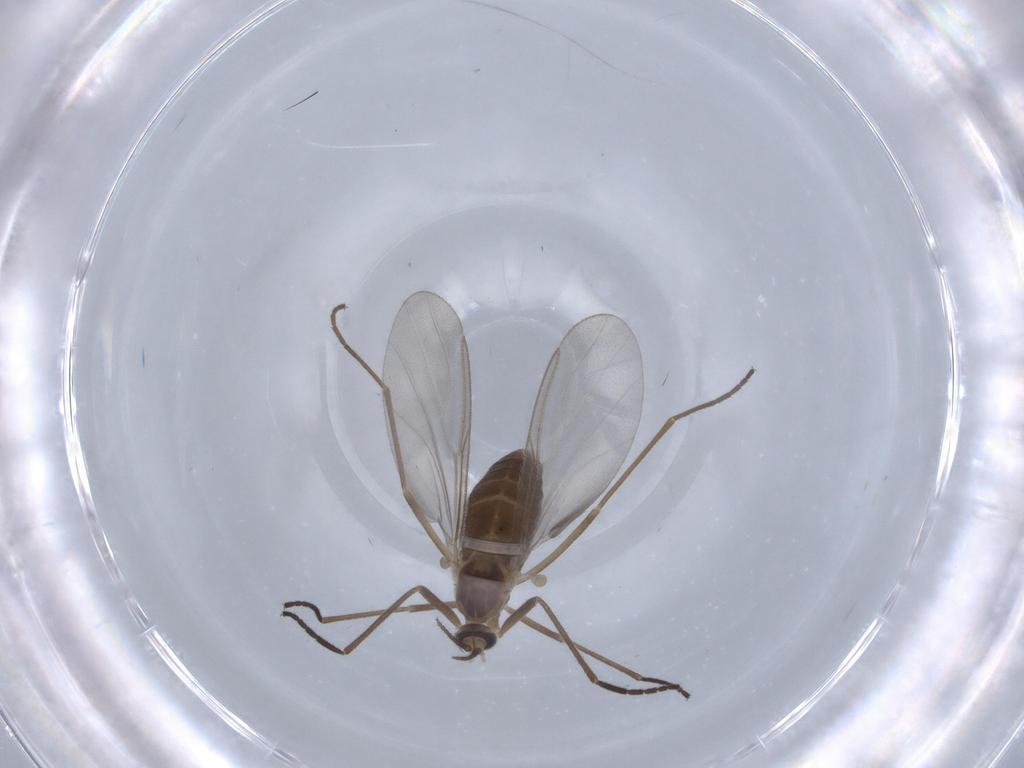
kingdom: Animalia
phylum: Arthropoda
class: Insecta
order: Diptera
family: Cecidomyiidae
